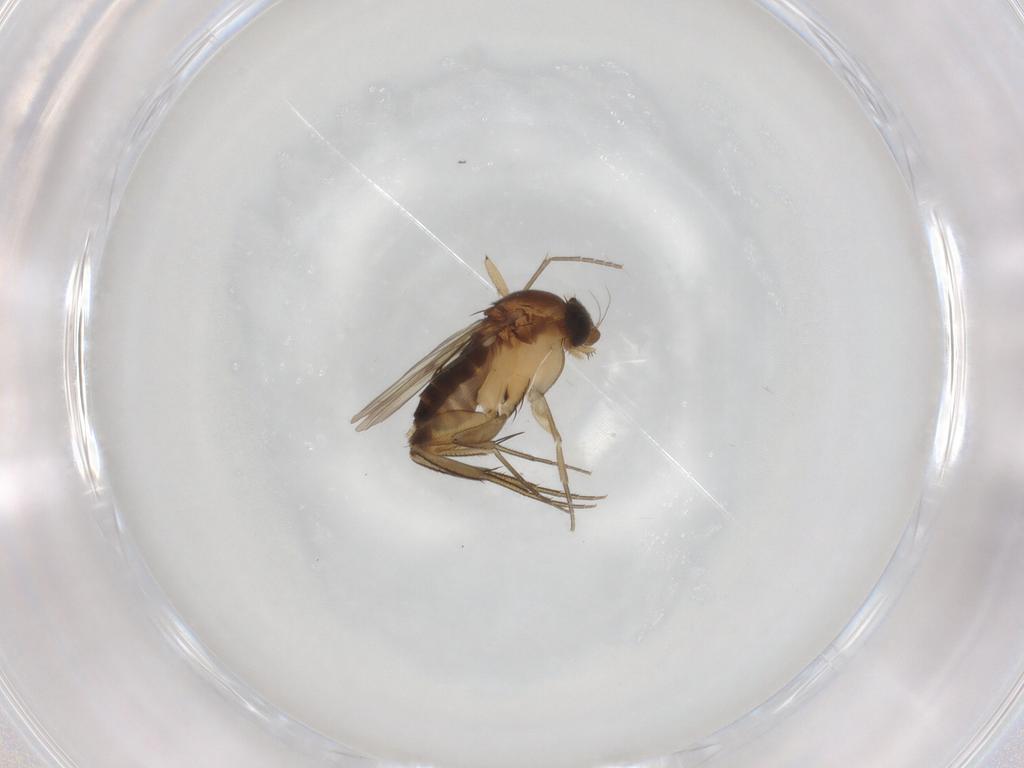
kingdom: Animalia
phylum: Arthropoda
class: Insecta
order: Diptera
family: Phoridae
